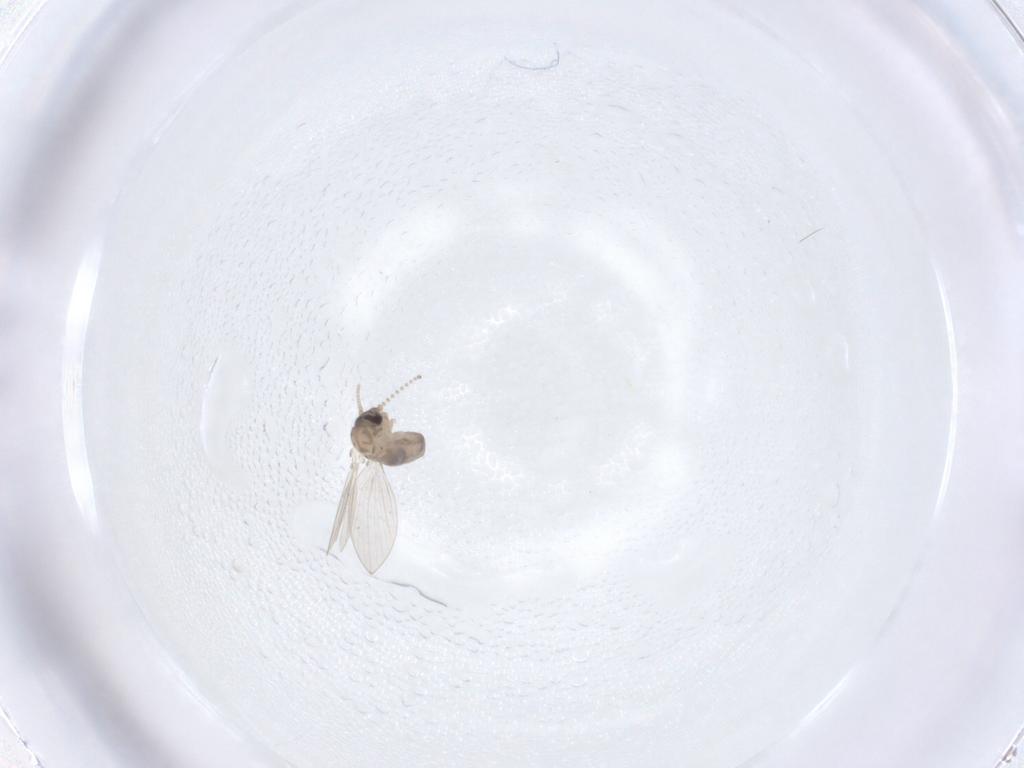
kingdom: Animalia
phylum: Arthropoda
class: Insecta
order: Diptera
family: Psychodidae
